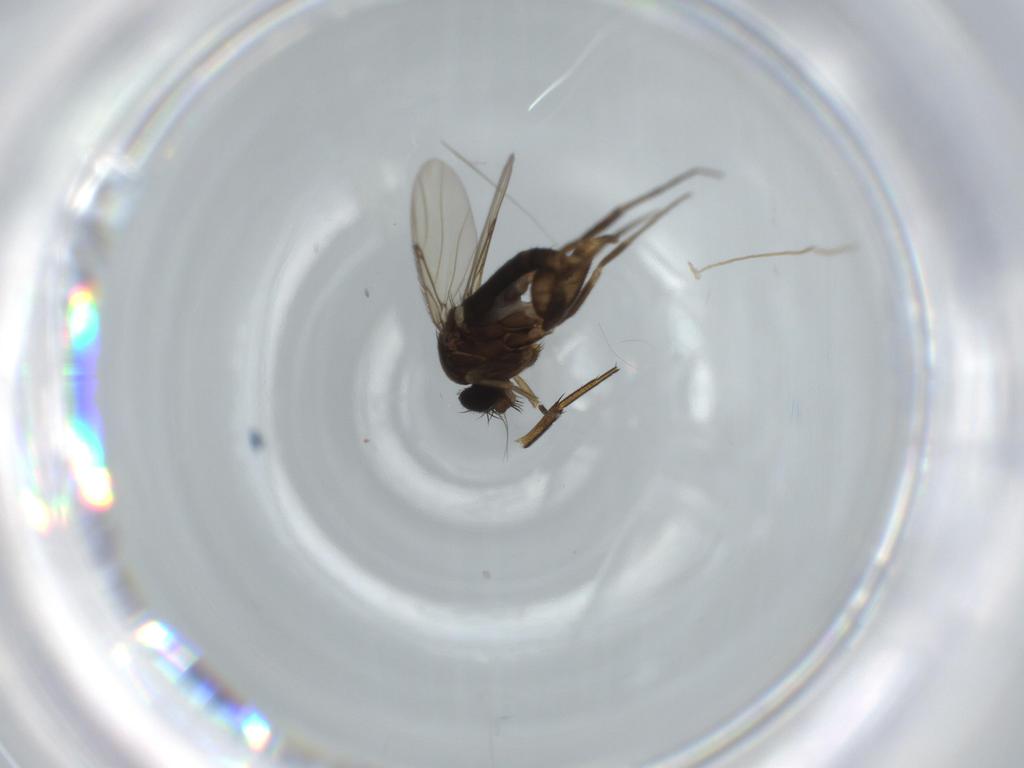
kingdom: Animalia
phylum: Arthropoda
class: Insecta
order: Diptera
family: Sciaridae
